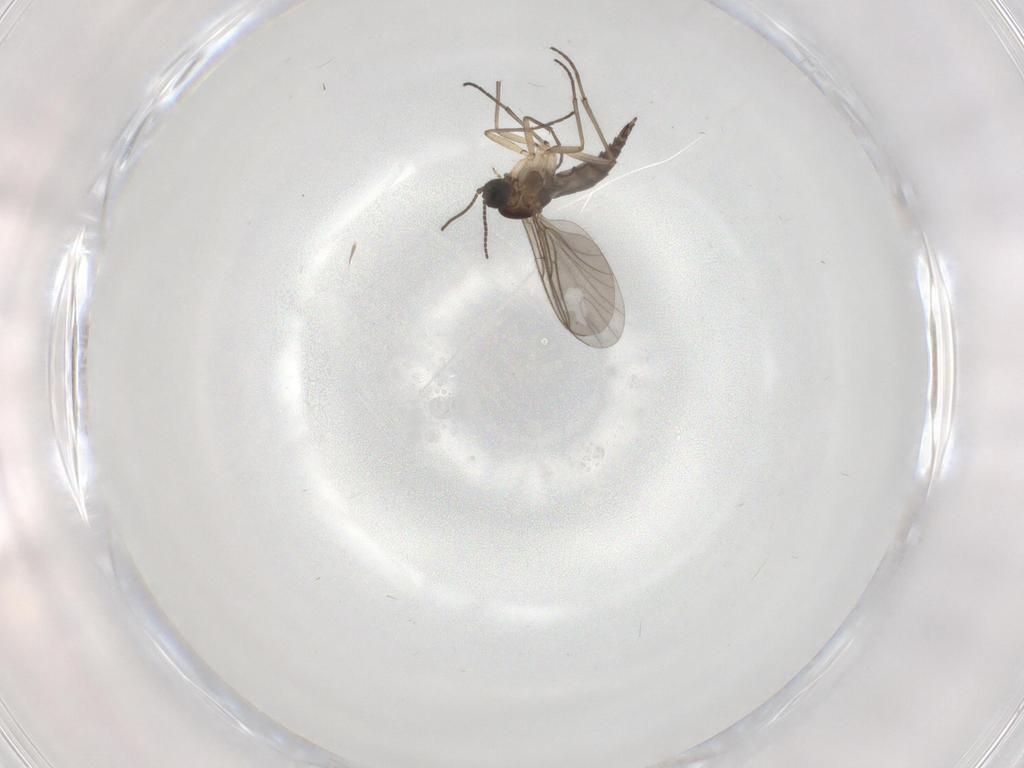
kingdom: Animalia
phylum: Arthropoda
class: Insecta
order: Diptera
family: Sciaridae
